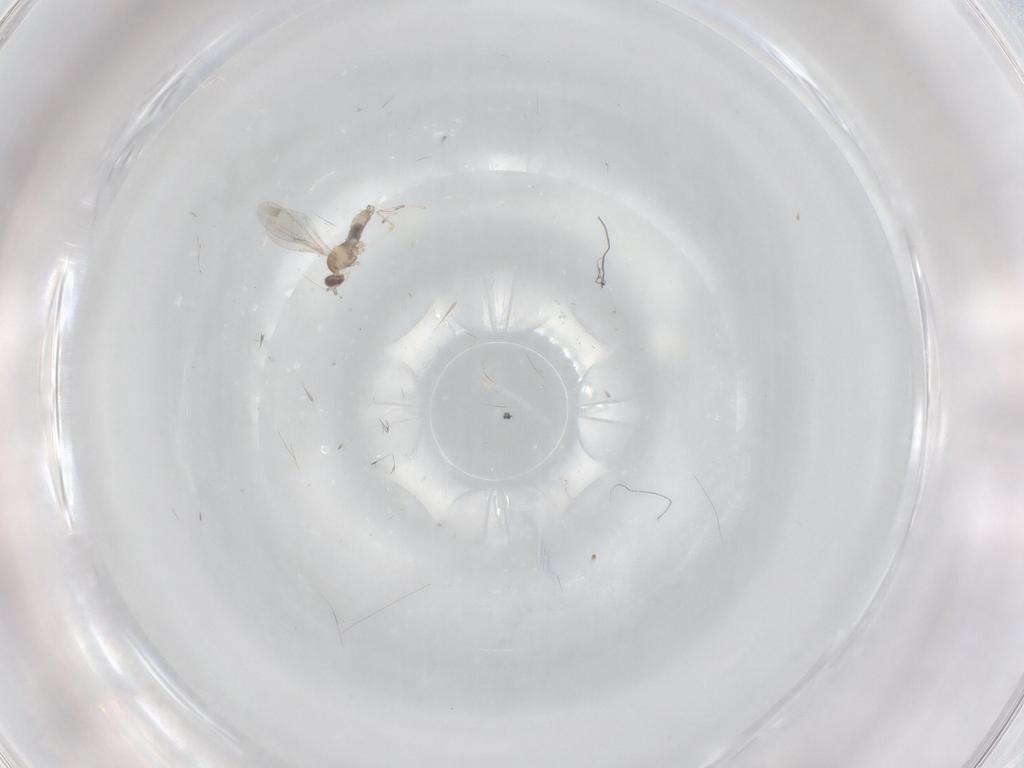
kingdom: Animalia
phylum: Arthropoda
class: Insecta
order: Diptera
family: Cecidomyiidae
